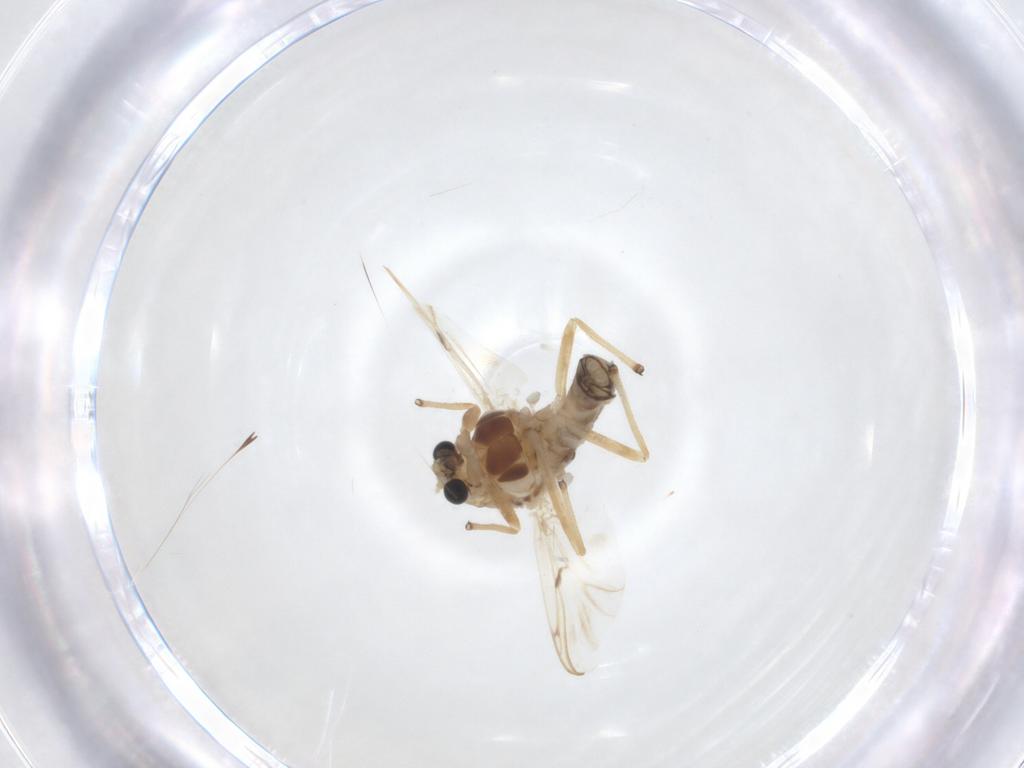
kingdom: Animalia
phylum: Arthropoda
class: Insecta
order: Diptera
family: Chironomidae
